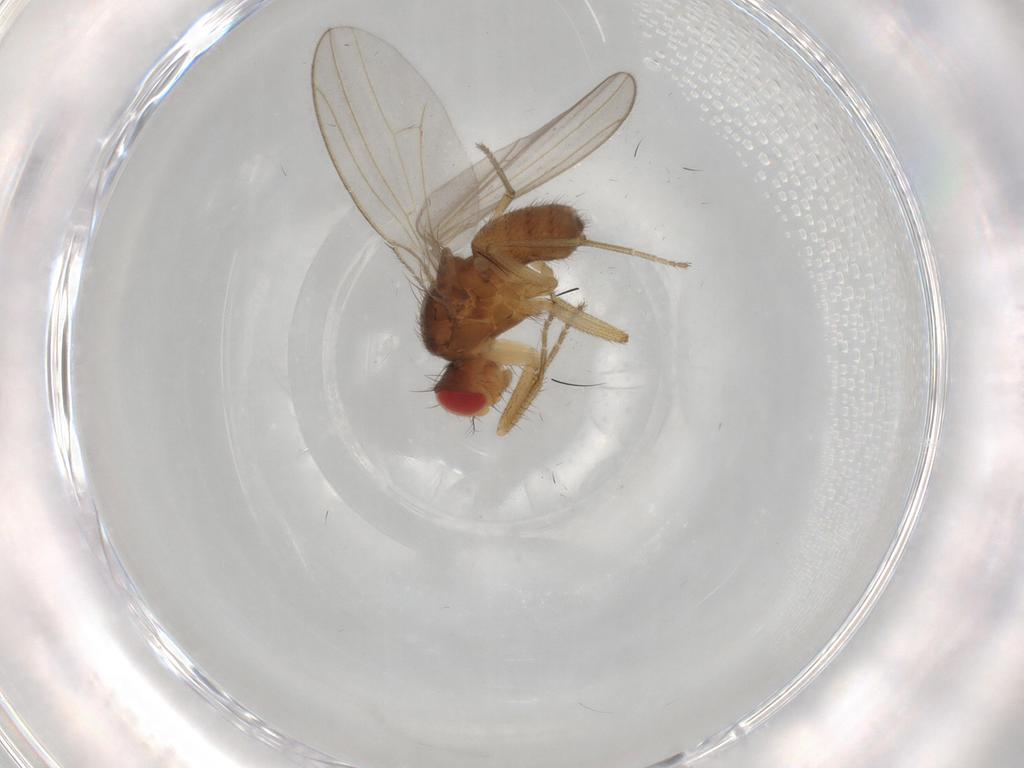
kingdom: Animalia
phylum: Arthropoda
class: Insecta
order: Diptera
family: Drosophilidae
